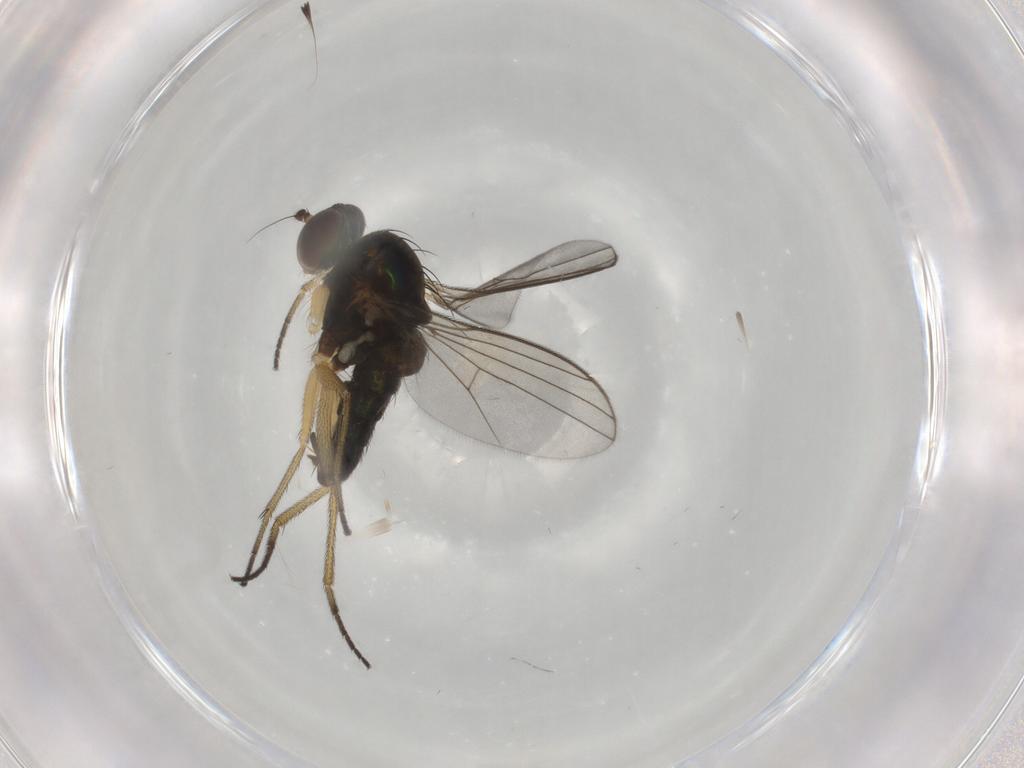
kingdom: Animalia
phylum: Arthropoda
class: Insecta
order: Diptera
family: Dolichopodidae
